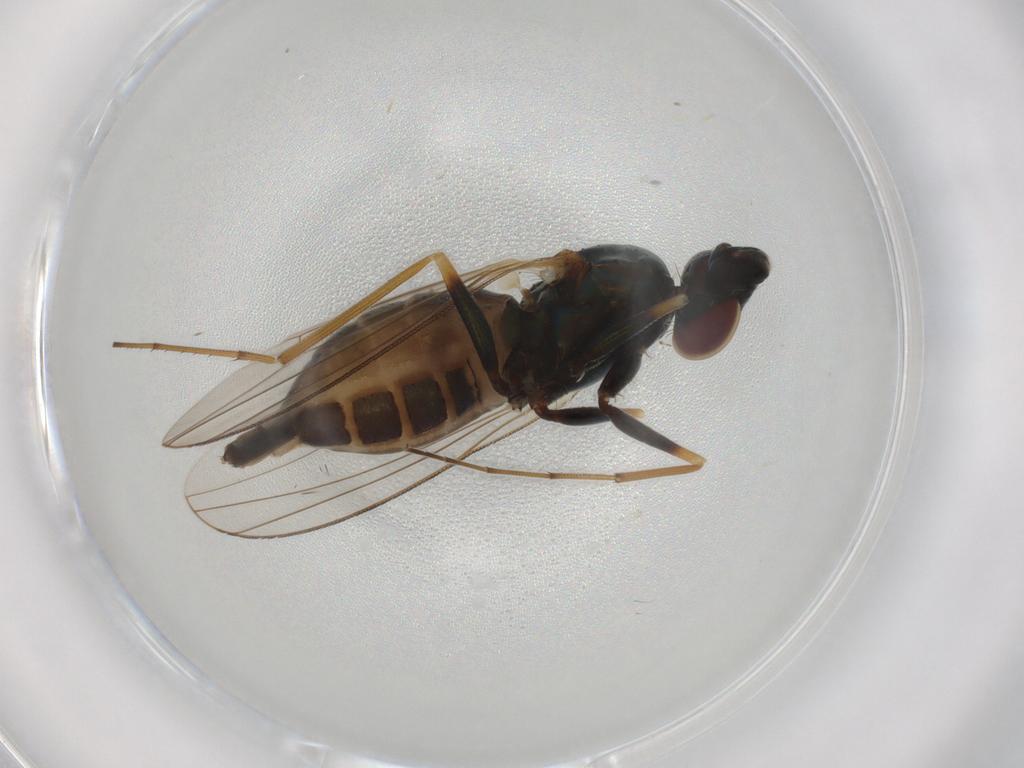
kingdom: Animalia
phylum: Arthropoda
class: Insecta
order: Diptera
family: Dolichopodidae
